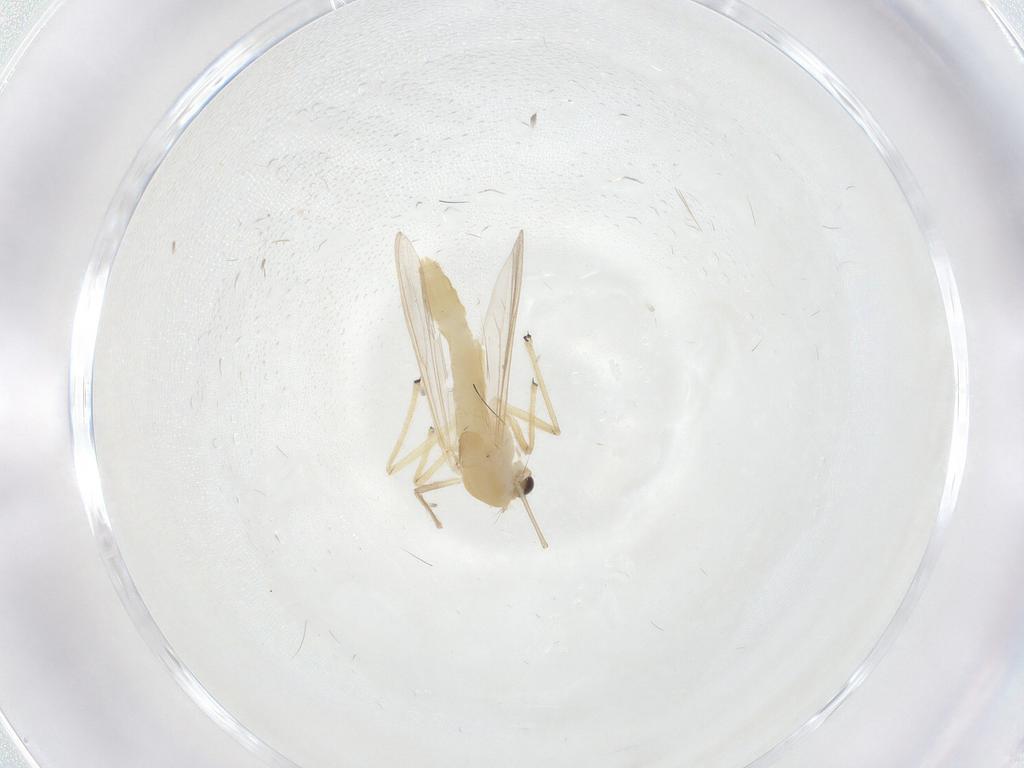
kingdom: Animalia
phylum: Arthropoda
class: Insecta
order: Diptera
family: Chironomidae
